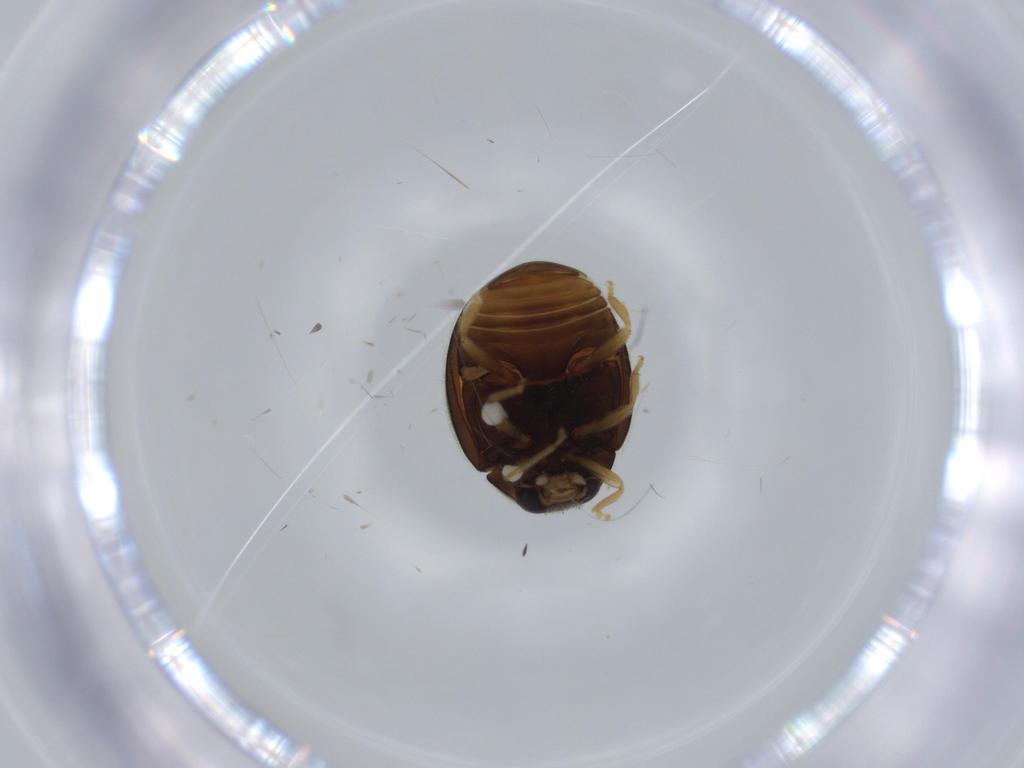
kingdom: Animalia
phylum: Arthropoda
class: Insecta
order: Coleoptera
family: Coccinellidae
